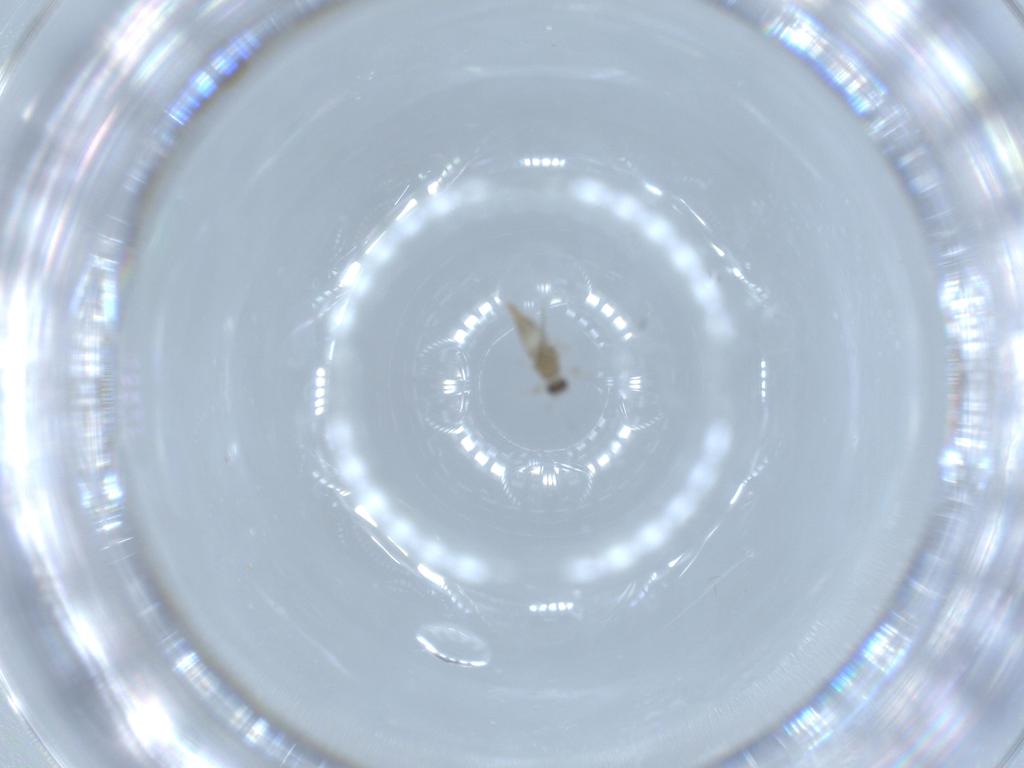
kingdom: Animalia
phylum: Arthropoda
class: Insecta
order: Diptera
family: Cecidomyiidae
